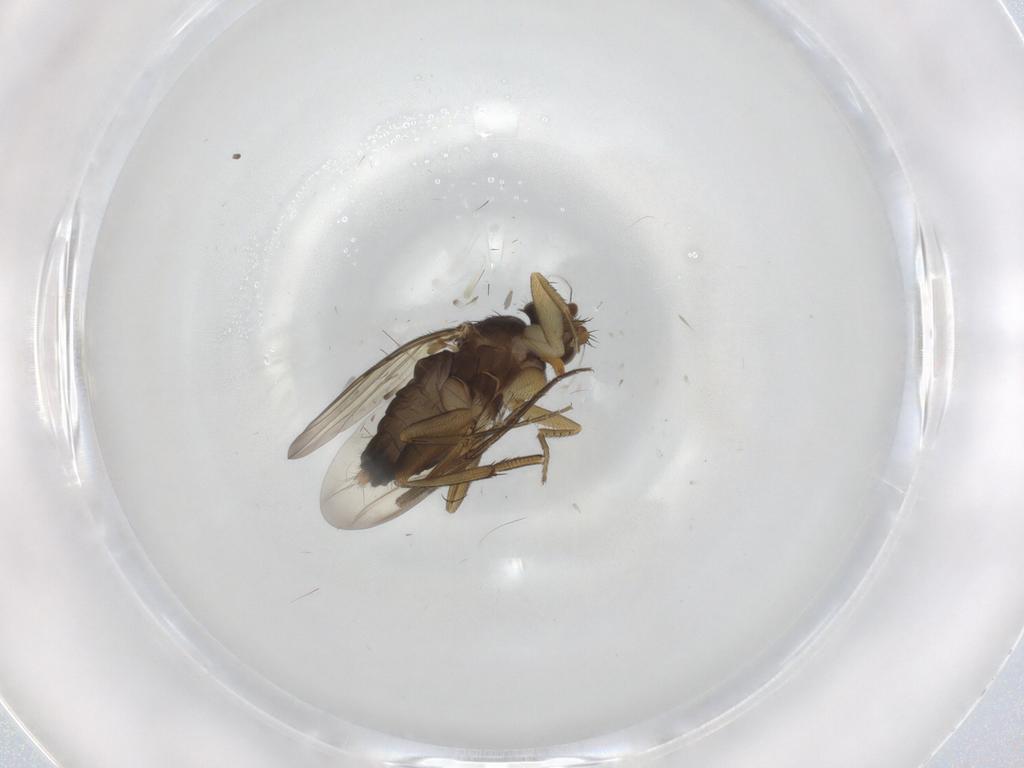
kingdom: Animalia
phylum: Arthropoda
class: Insecta
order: Diptera
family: Phoridae
